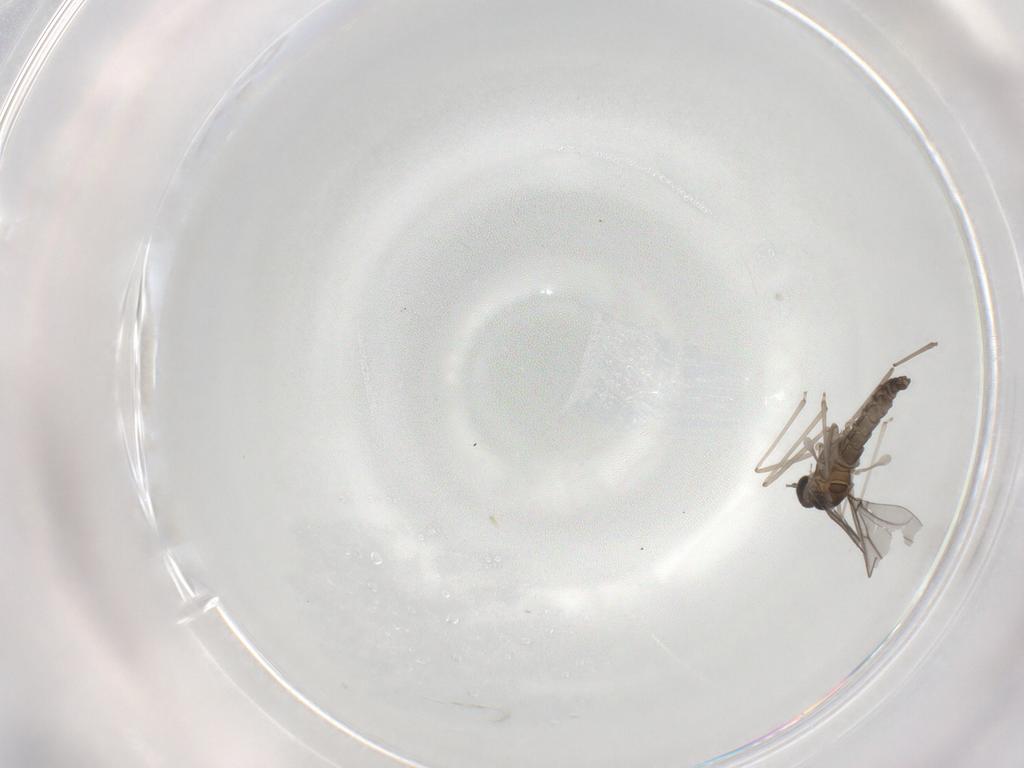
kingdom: Animalia
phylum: Arthropoda
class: Insecta
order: Diptera
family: Cecidomyiidae
